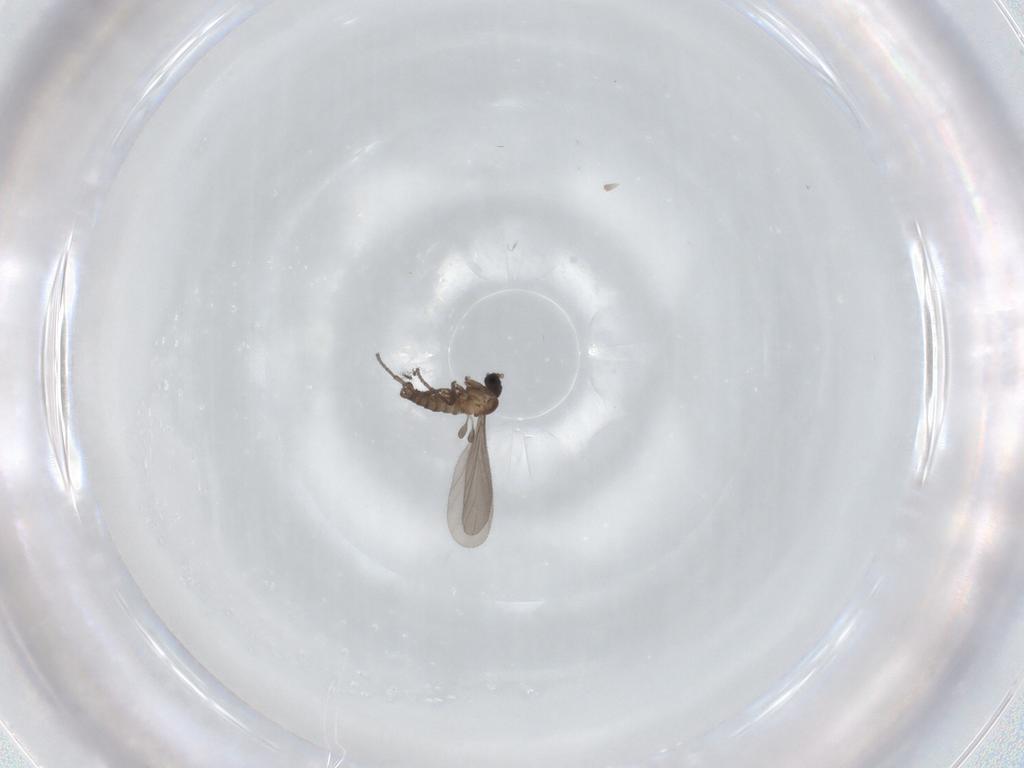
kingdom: Animalia
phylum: Arthropoda
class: Insecta
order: Diptera
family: Sciaridae
